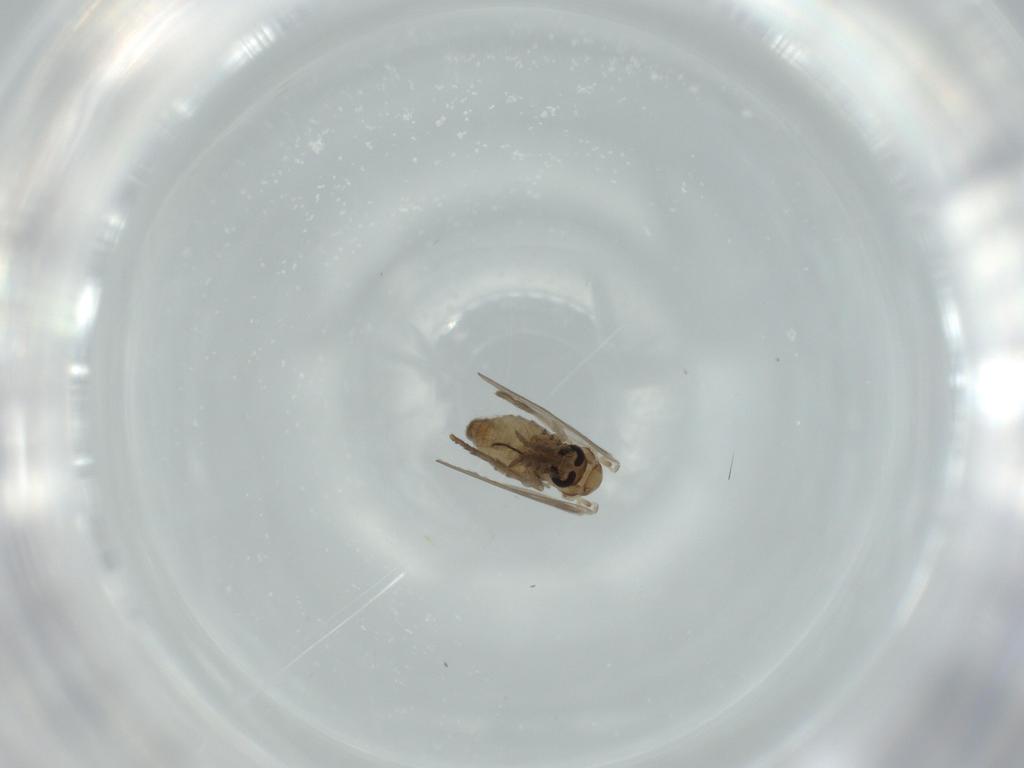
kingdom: Animalia
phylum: Arthropoda
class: Insecta
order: Diptera
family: Psychodidae
